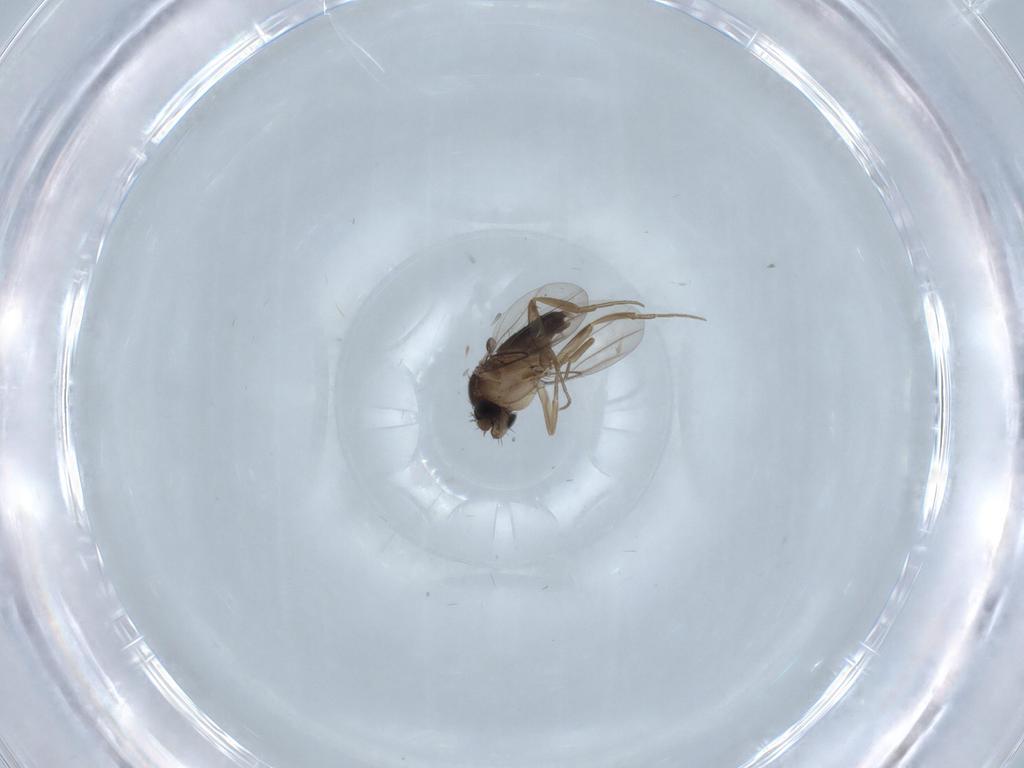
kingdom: Animalia
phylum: Arthropoda
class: Insecta
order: Diptera
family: Phoridae
